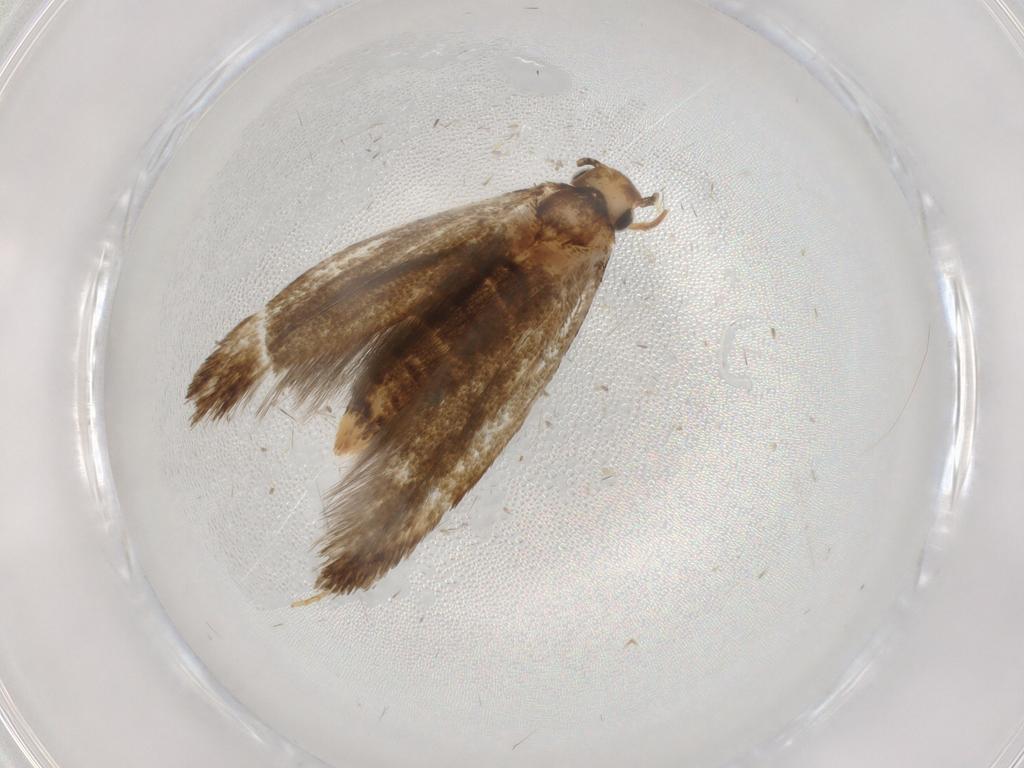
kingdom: Animalia
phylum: Arthropoda
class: Insecta
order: Lepidoptera
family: Tineidae
